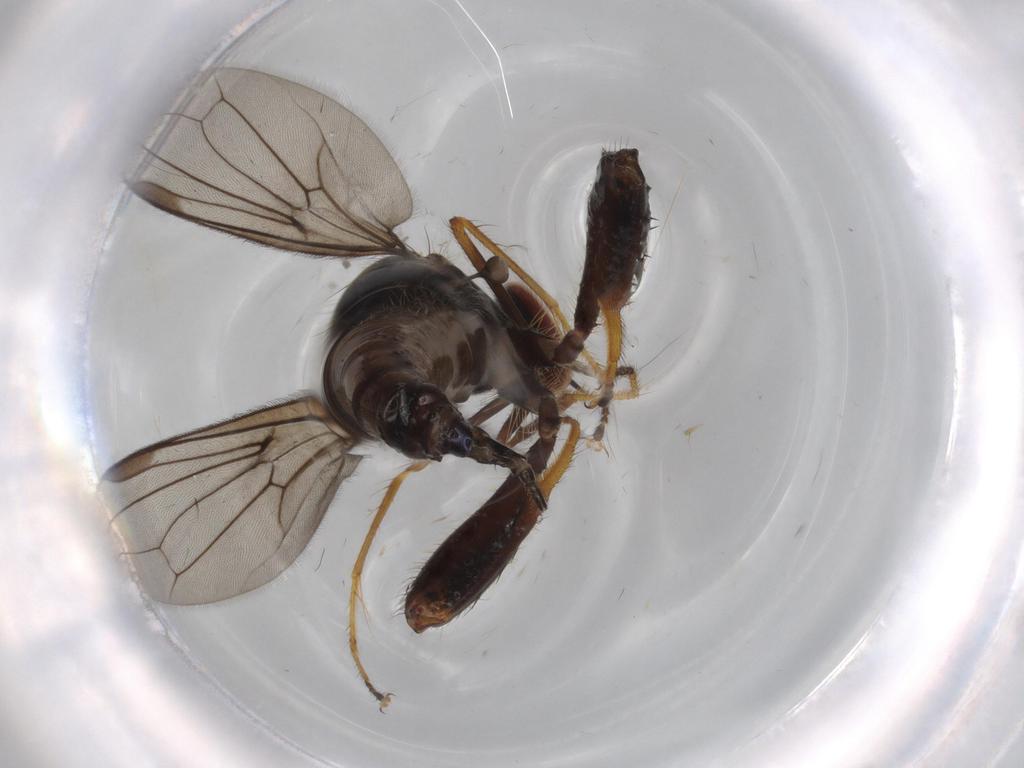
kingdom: Animalia
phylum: Arthropoda
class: Insecta
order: Diptera
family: Hybotidae
